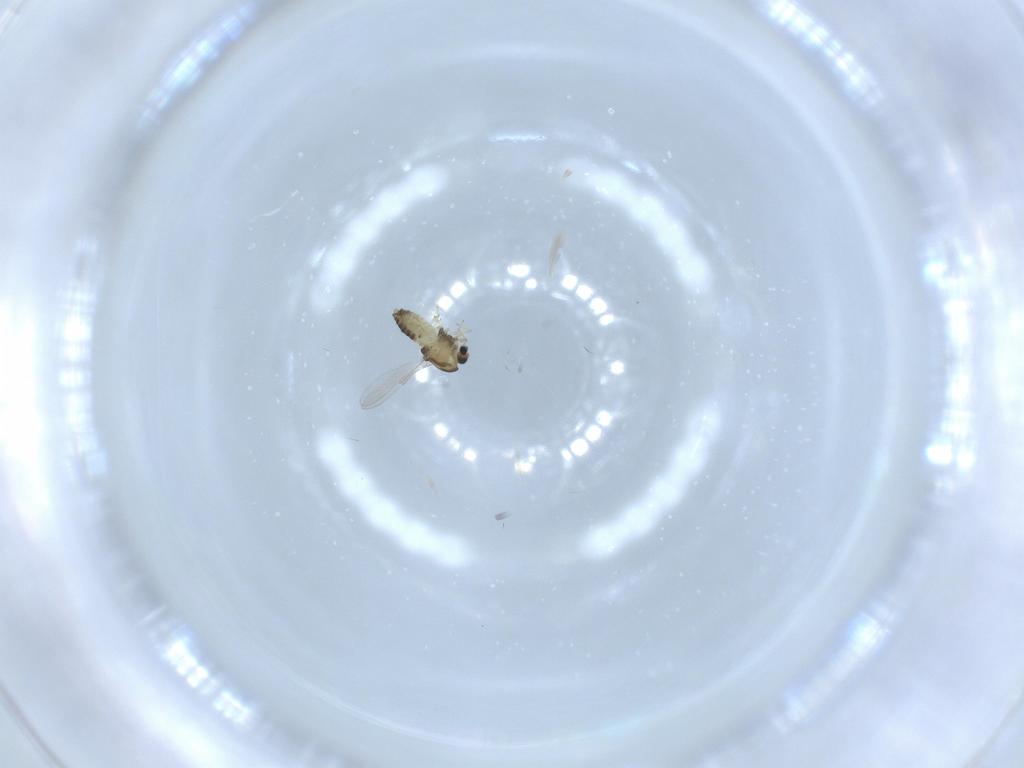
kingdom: Animalia
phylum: Arthropoda
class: Insecta
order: Diptera
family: Chironomidae
